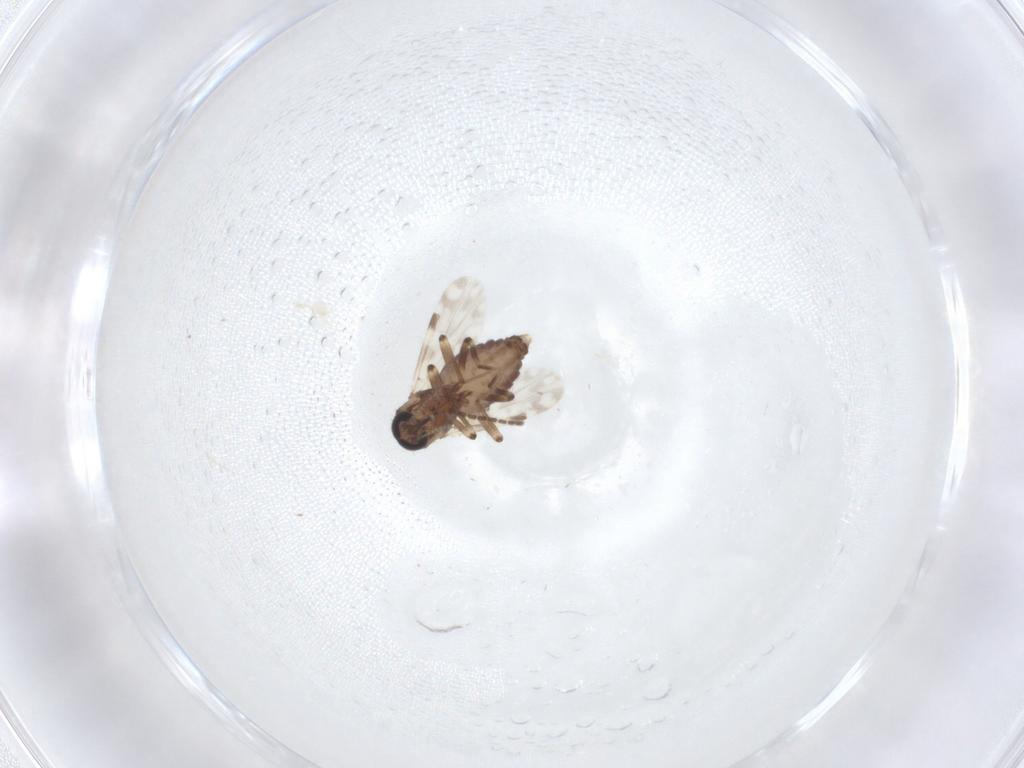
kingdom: Animalia
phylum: Arthropoda
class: Insecta
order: Diptera
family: Sciaridae
